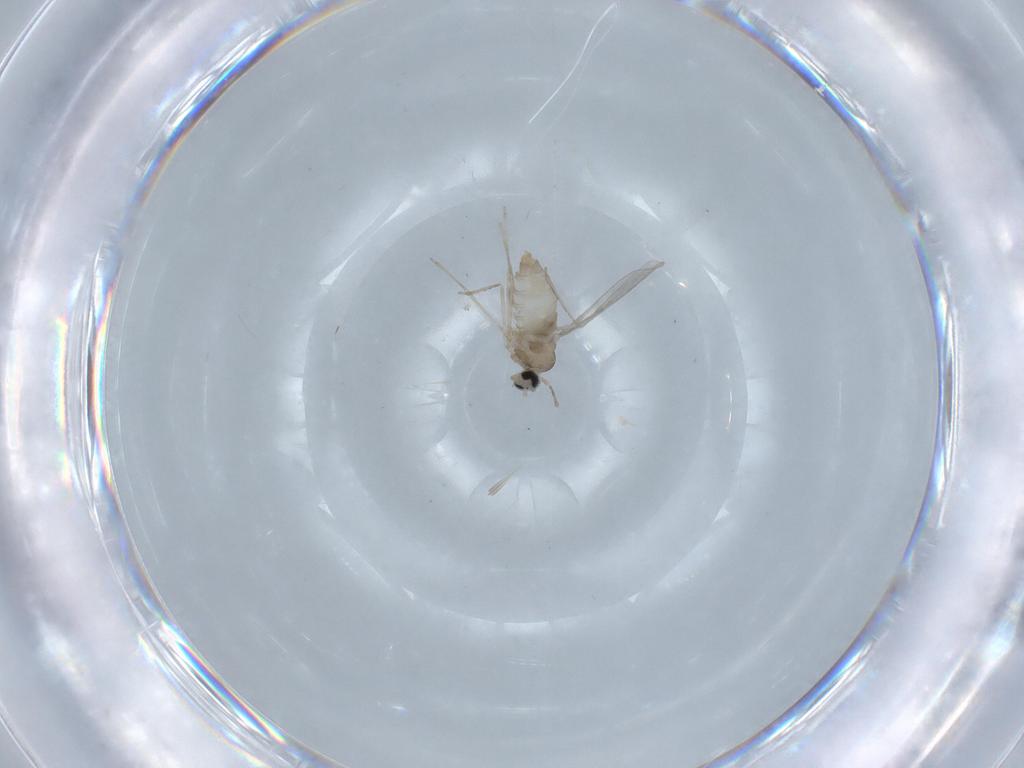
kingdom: Animalia
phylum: Arthropoda
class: Insecta
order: Diptera
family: Cecidomyiidae
